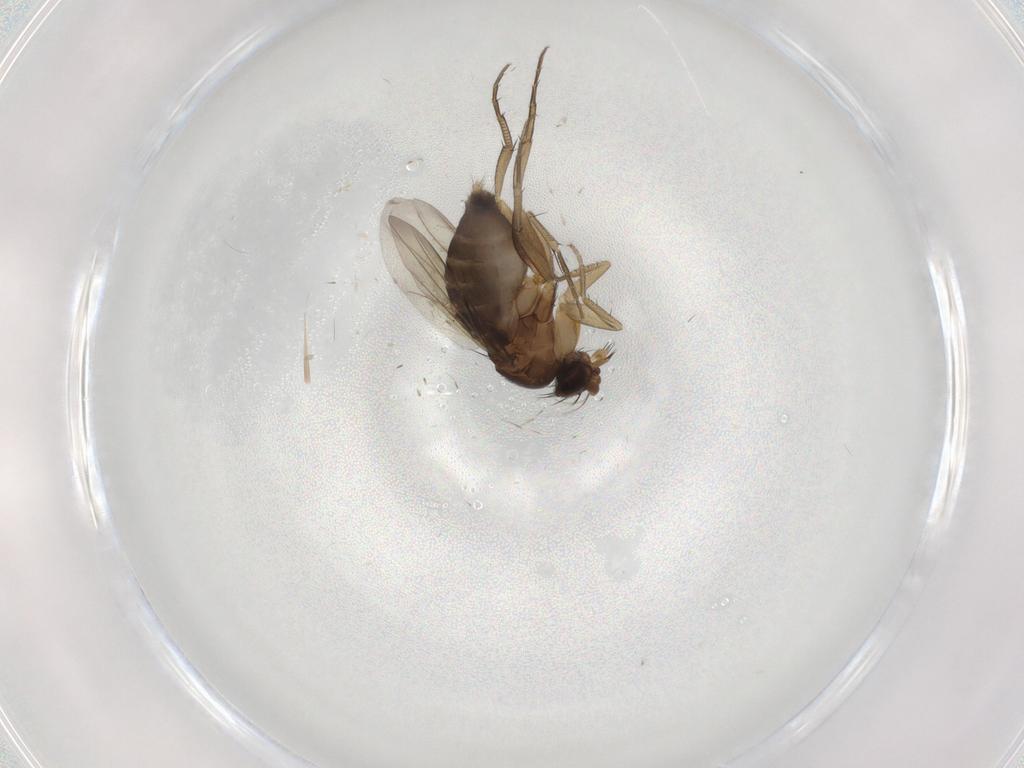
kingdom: Animalia
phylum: Arthropoda
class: Insecta
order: Diptera
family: Phoridae
